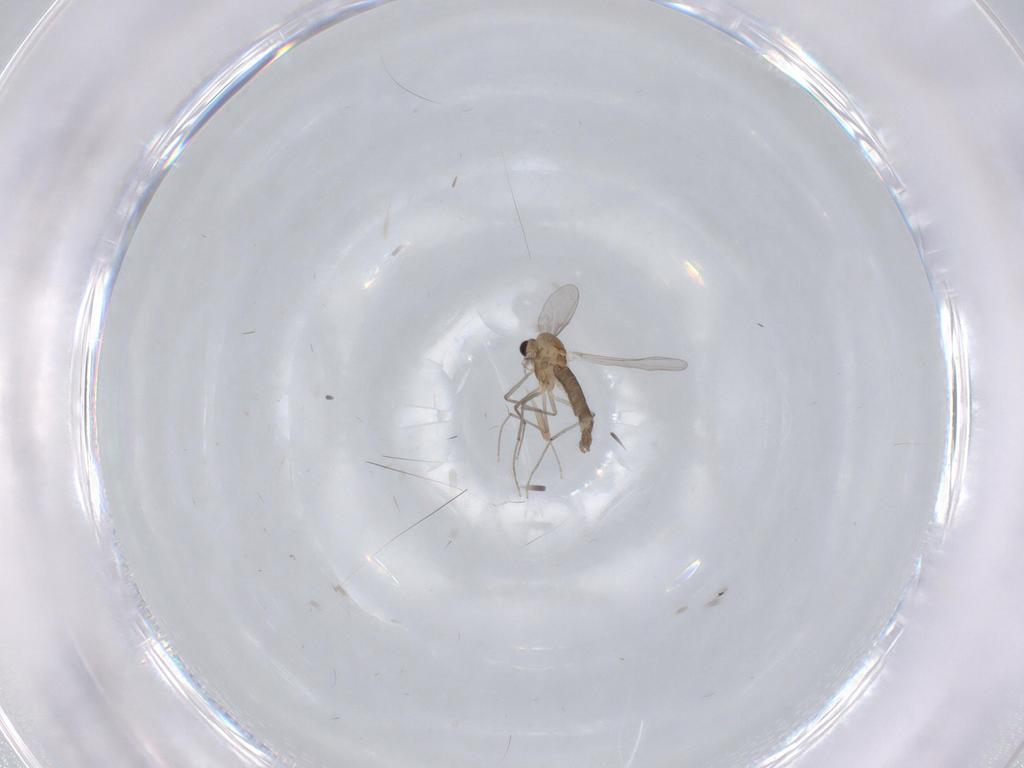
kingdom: Animalia
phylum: Arthropoda
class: Insecta
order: Diptera
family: Chironomidae
